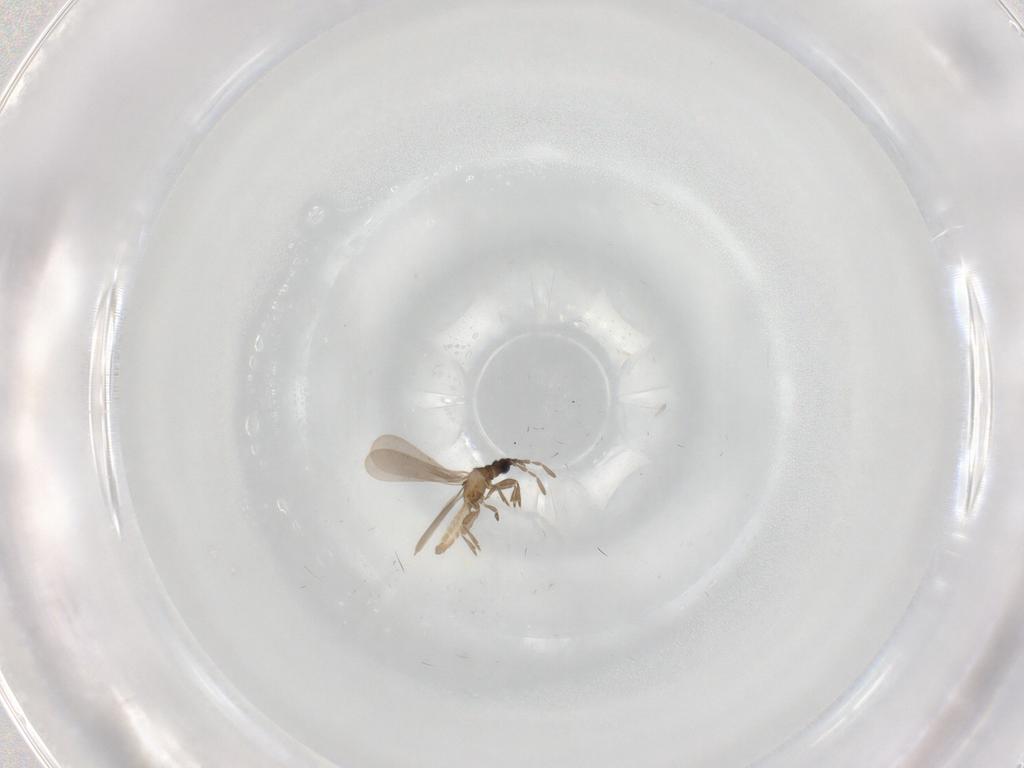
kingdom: Animalia
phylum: Arthropoda
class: Insecta
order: Hemiptera
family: Enicocephalidae
